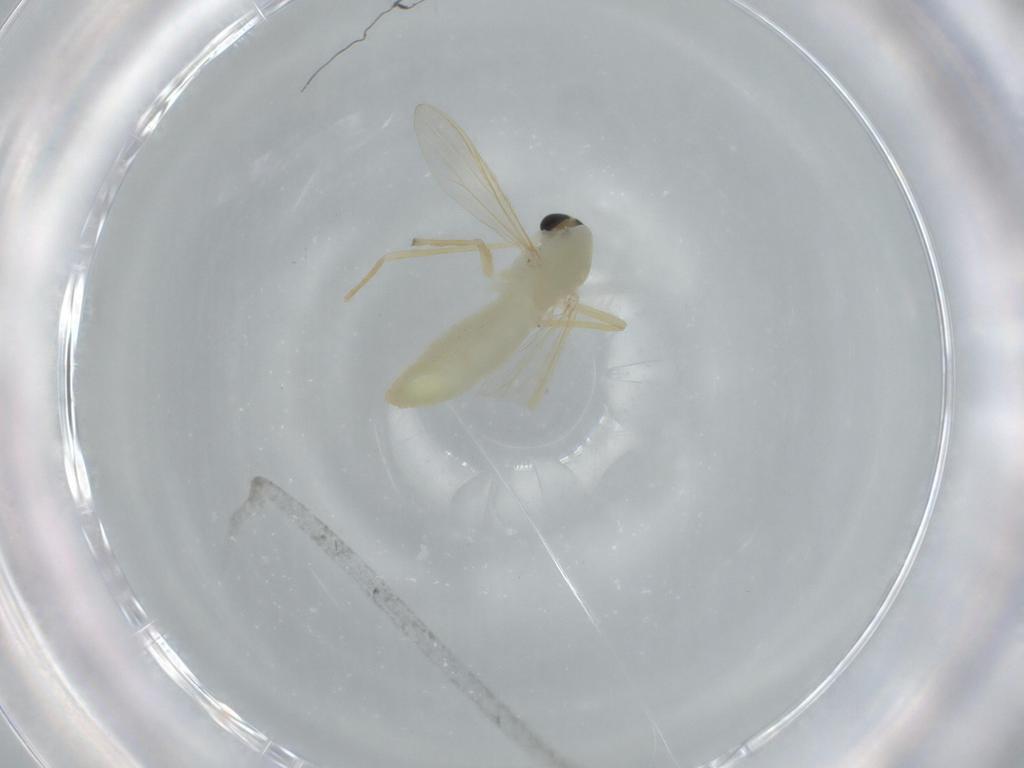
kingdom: Animalia
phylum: Arthropoda
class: Insecta
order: Diptera
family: Chironomidae
